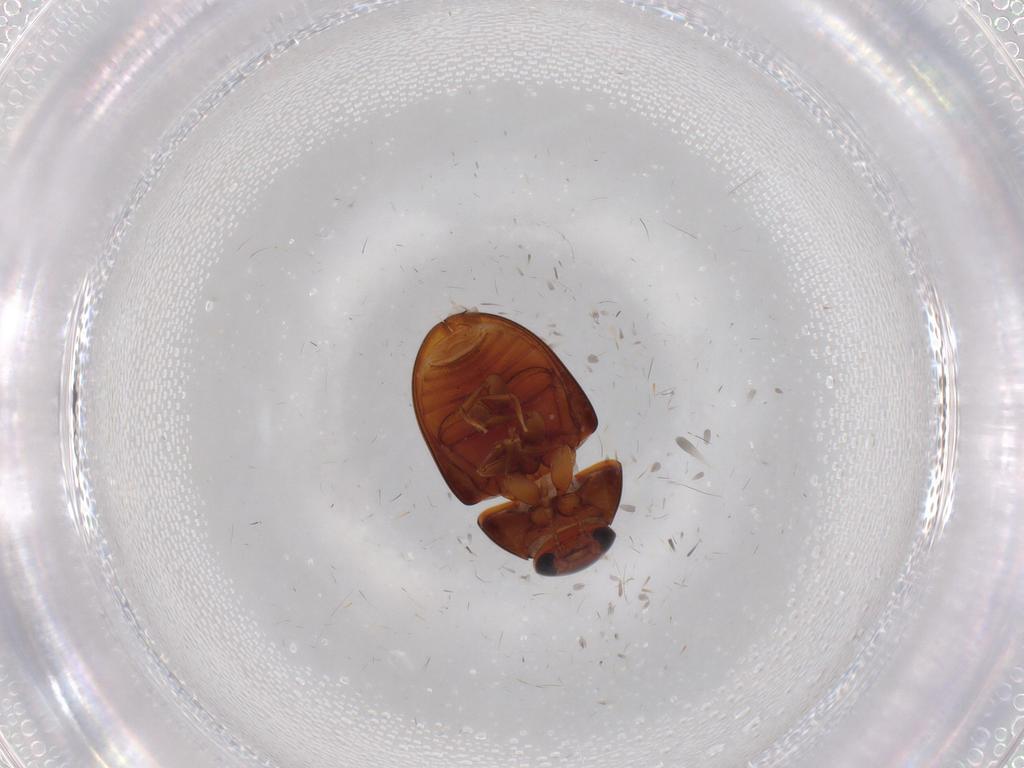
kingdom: Animalia
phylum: Arthropoda
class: Insecta
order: Coleoptera
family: Phalacridae
